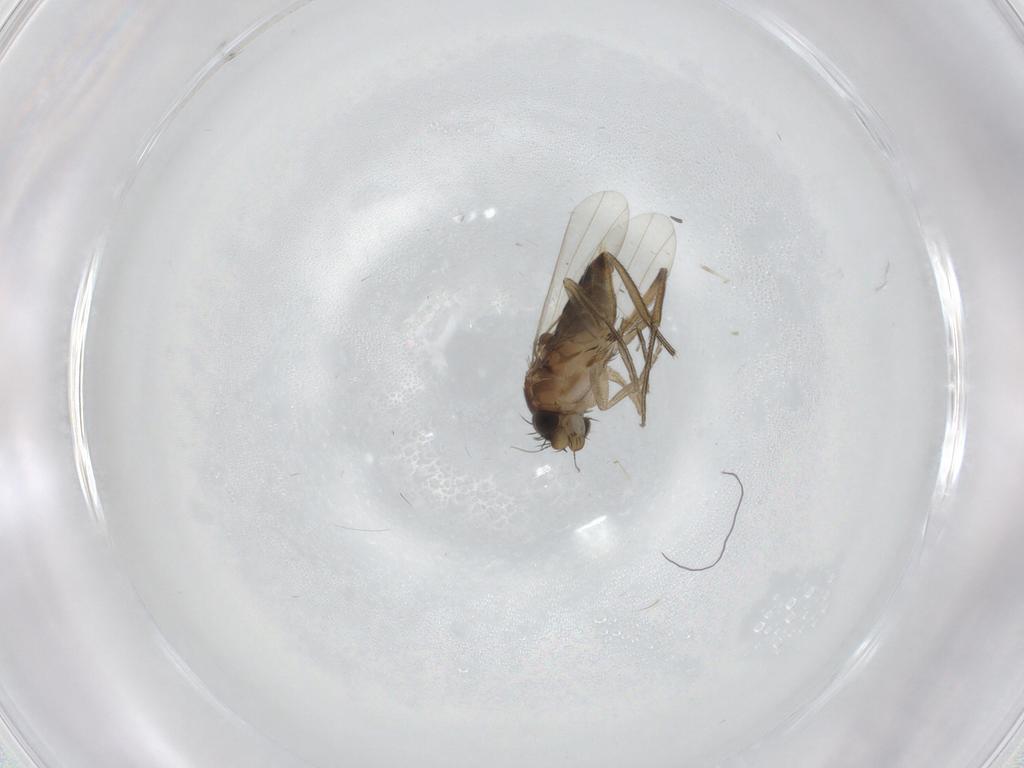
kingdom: Animalia
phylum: Arthropoda
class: Insecta
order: Diptera
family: Phoridae
